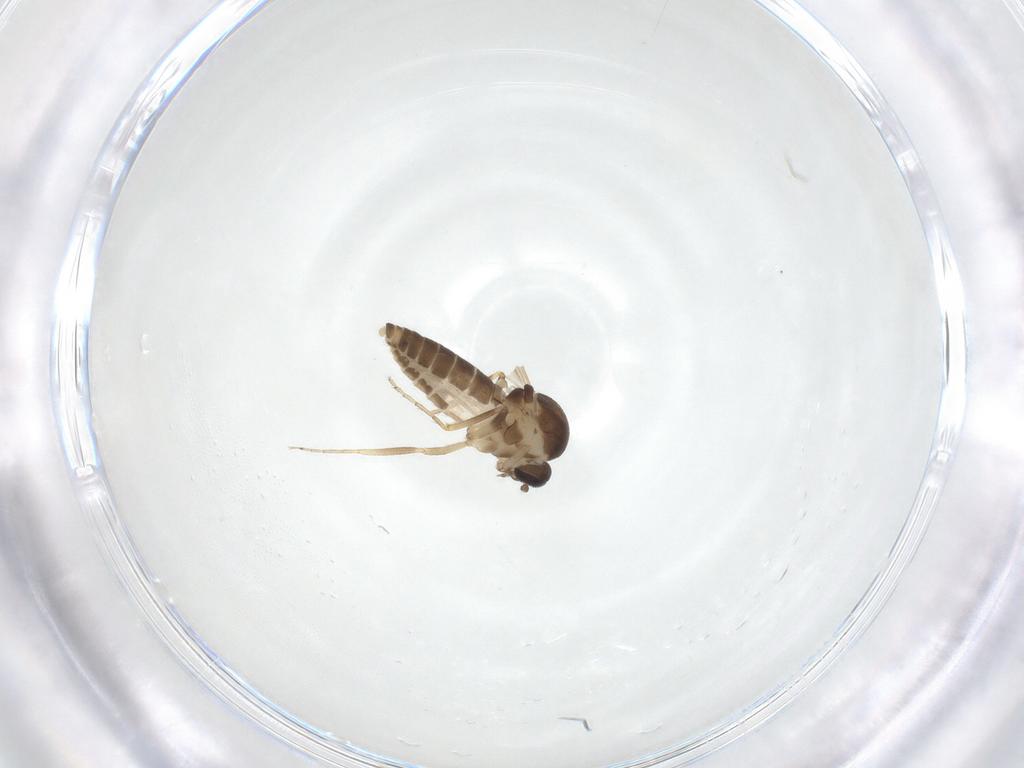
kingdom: Animalia
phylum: Arthropoda
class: Insecta
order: Diptera
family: Ceratopogonidae
